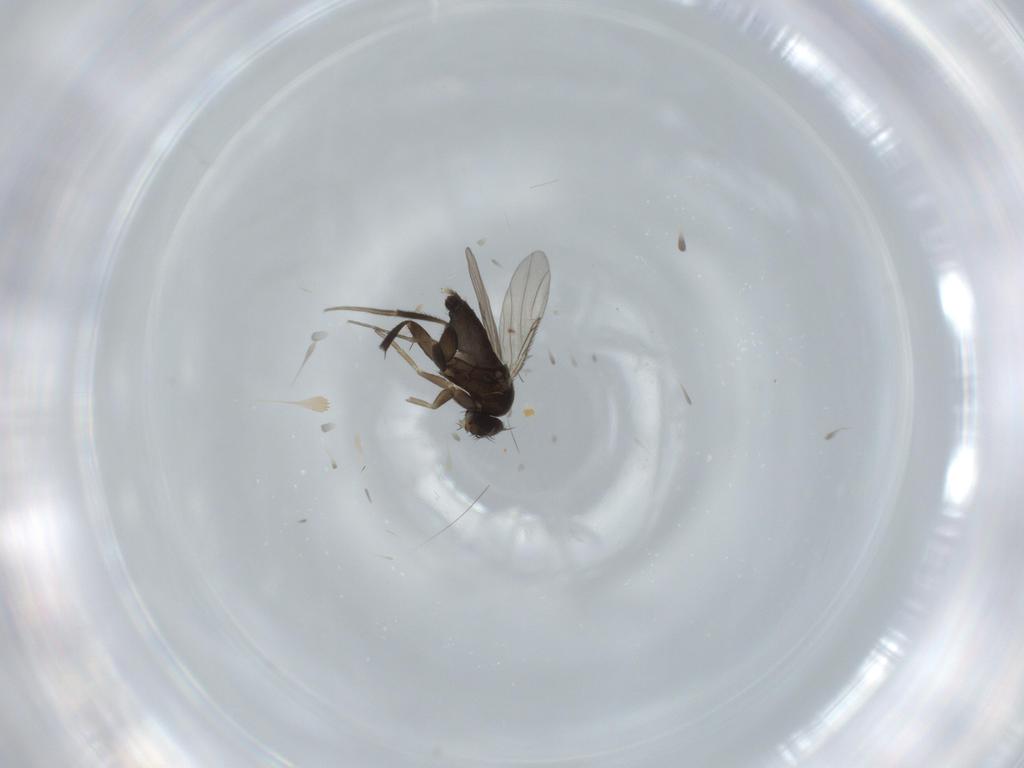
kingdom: Animalia
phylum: Arthropoda
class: Insecta
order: Diptera
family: Phoridae
